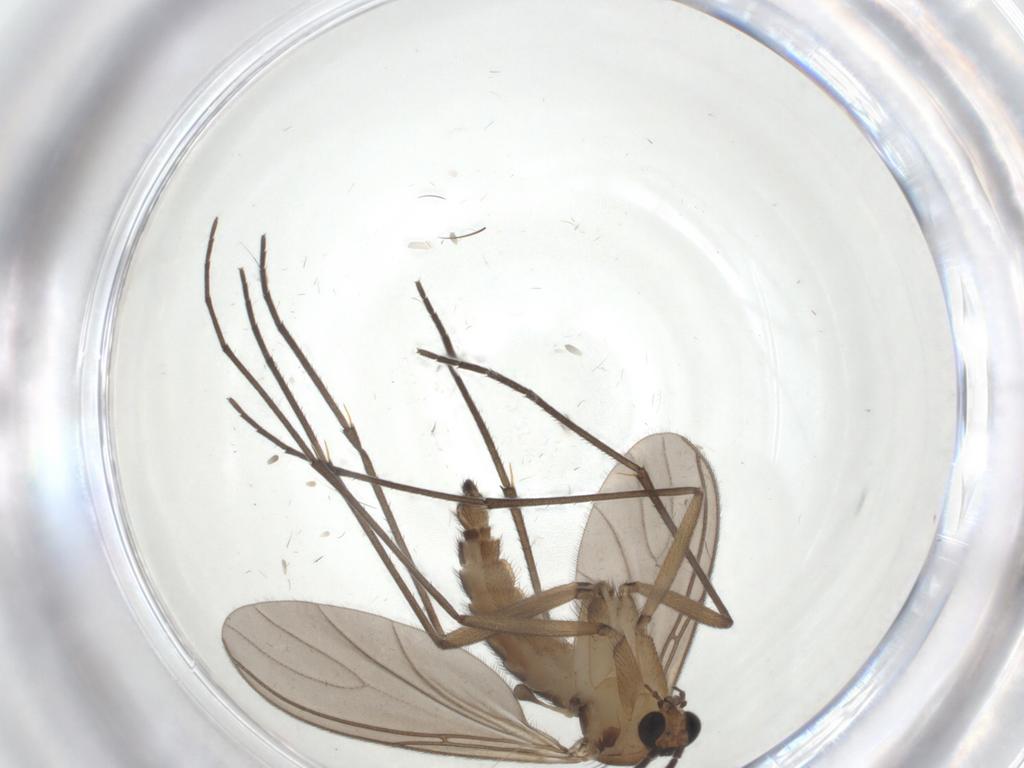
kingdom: Animalia
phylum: Arthropoda
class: Insecta
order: Diptera
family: Sciaridae
